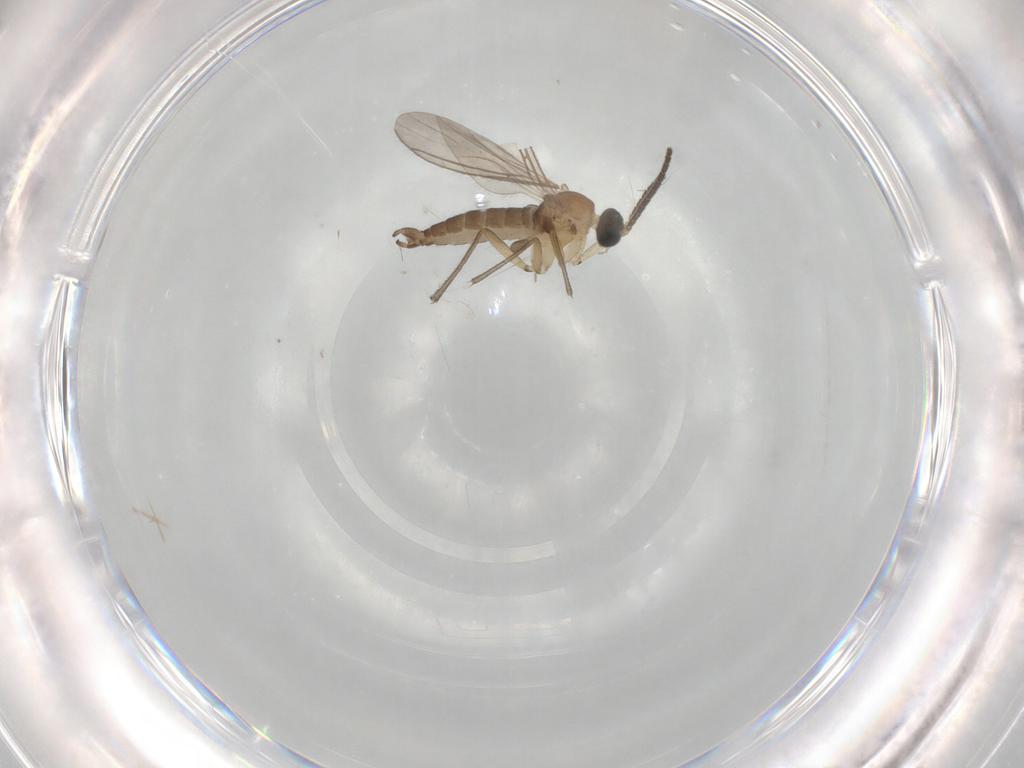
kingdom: Animalia
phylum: Arthropoda
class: Insecta
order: Diptera
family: Sciaridae
